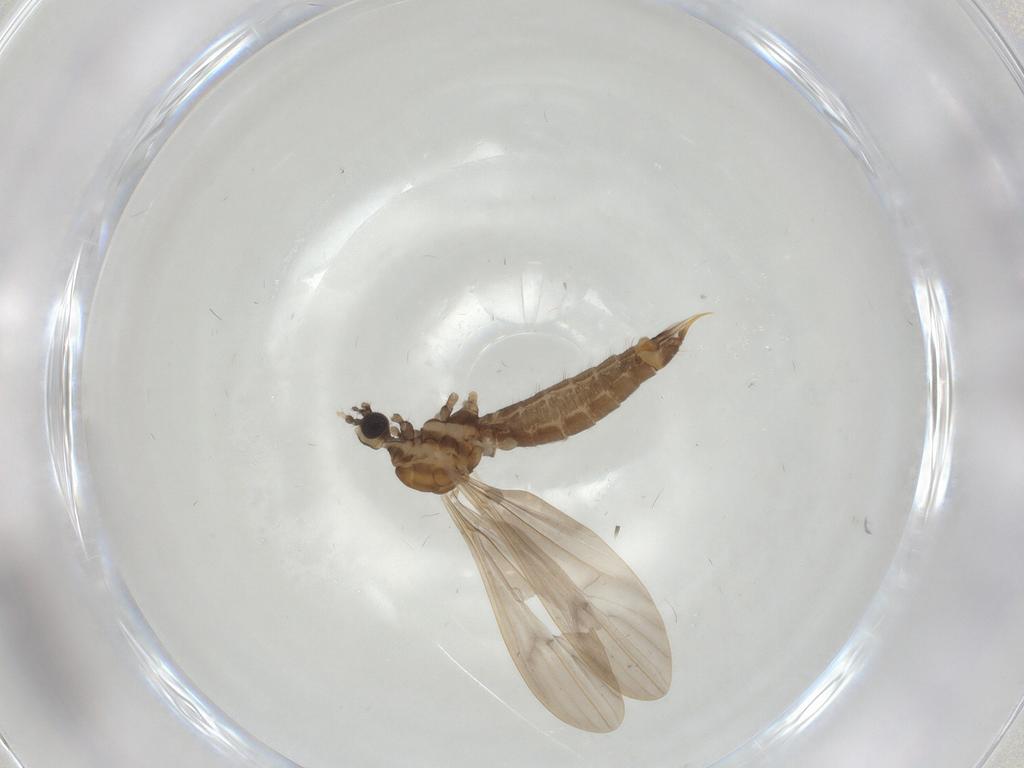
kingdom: Animalia
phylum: Arthropoda
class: Insecta
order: Diptera
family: Limoniidae
